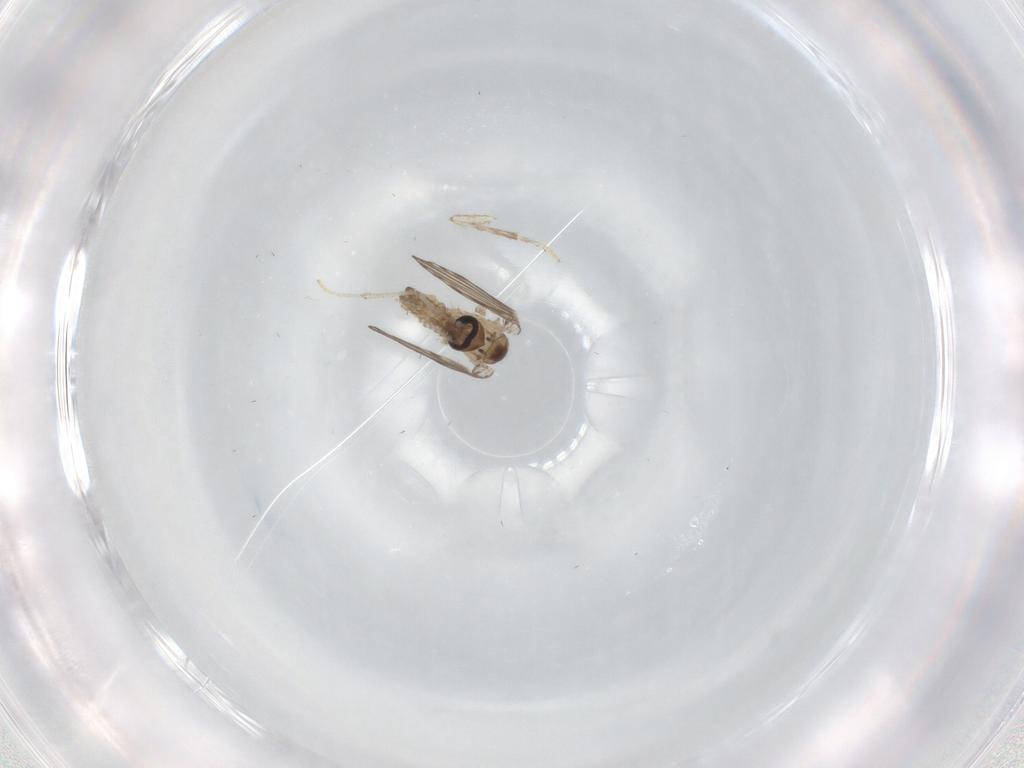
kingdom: Animalia
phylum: Arthropoda
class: Insecta
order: Diptera
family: Psychodidae
